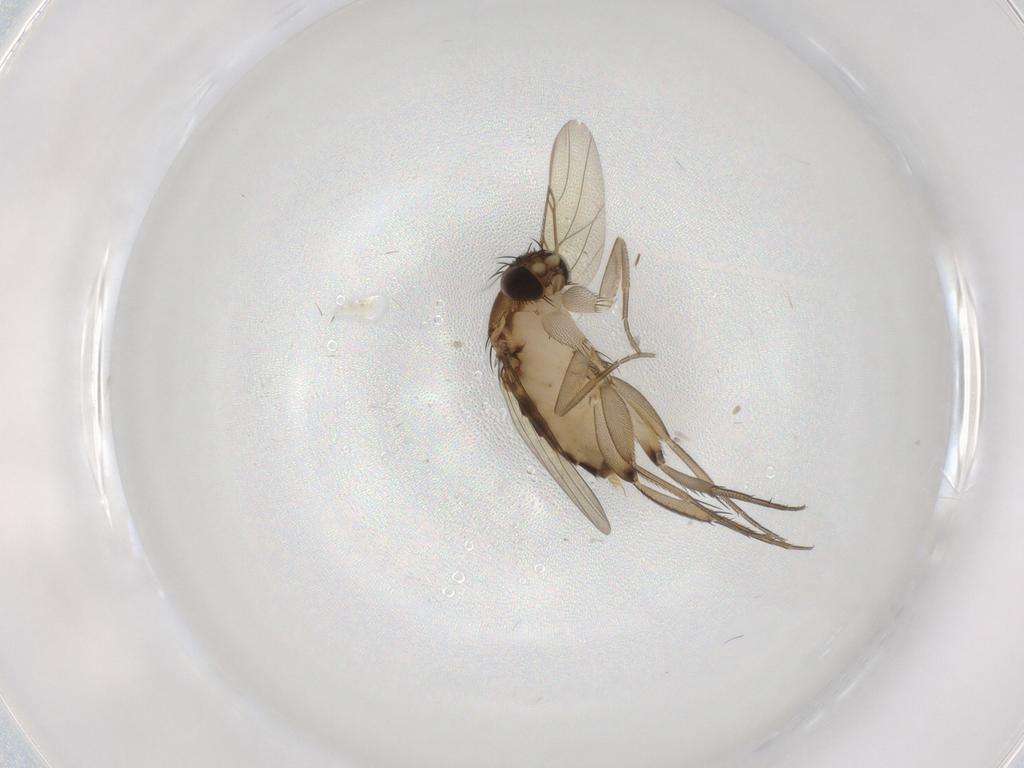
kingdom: Animalia
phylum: Arthropoda
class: Insecta
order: Diptera
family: Phoridae
